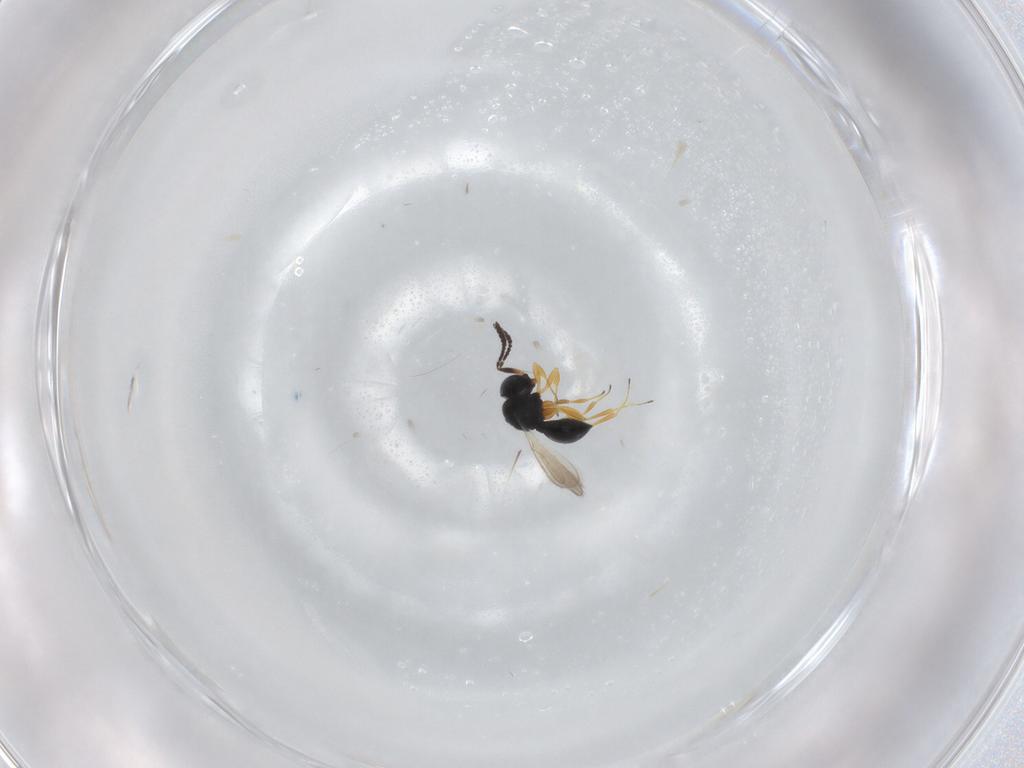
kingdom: Animalia
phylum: Arthropoda
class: Insecta
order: Hymenoptera
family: Scelionidae
